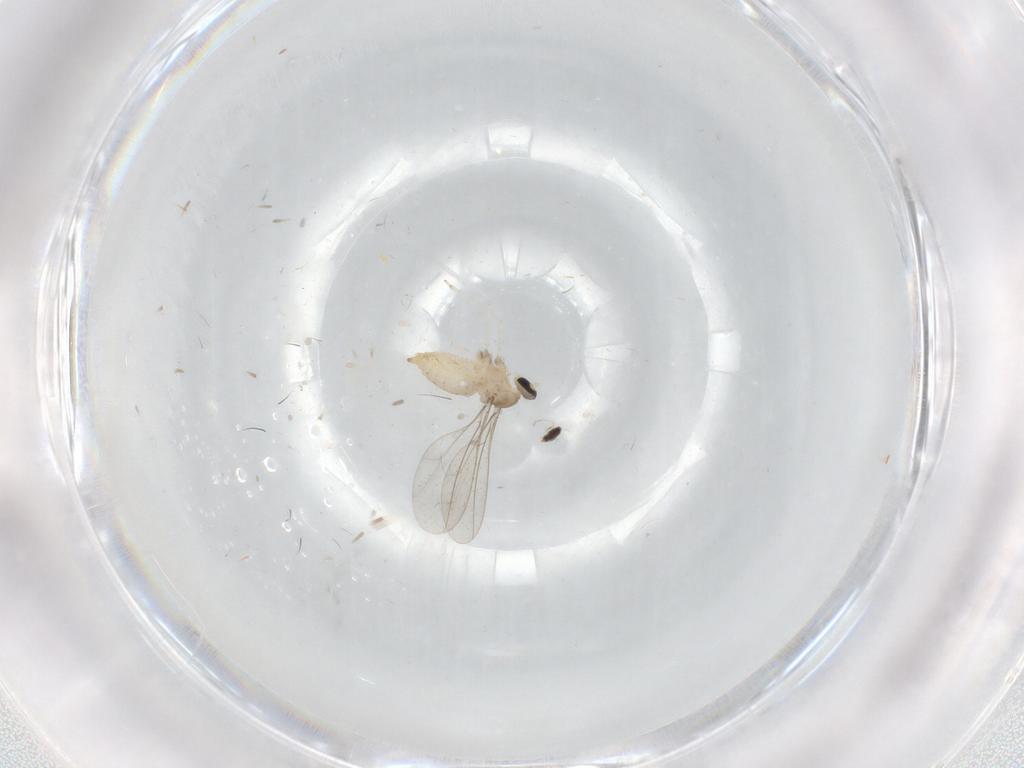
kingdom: Animalia
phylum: Arthropoda
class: Insecta
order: Diptera
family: Cecidomyiidae
